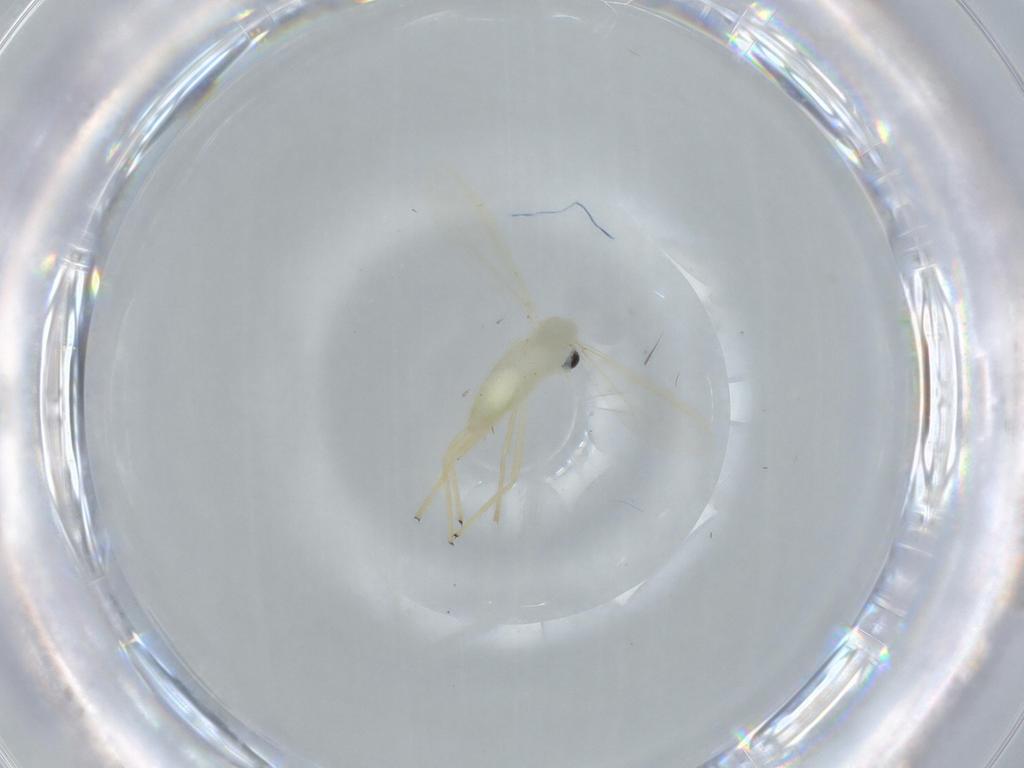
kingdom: Animalia
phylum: Arthropoda
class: Insecta
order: Diptera
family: Chironomidae
